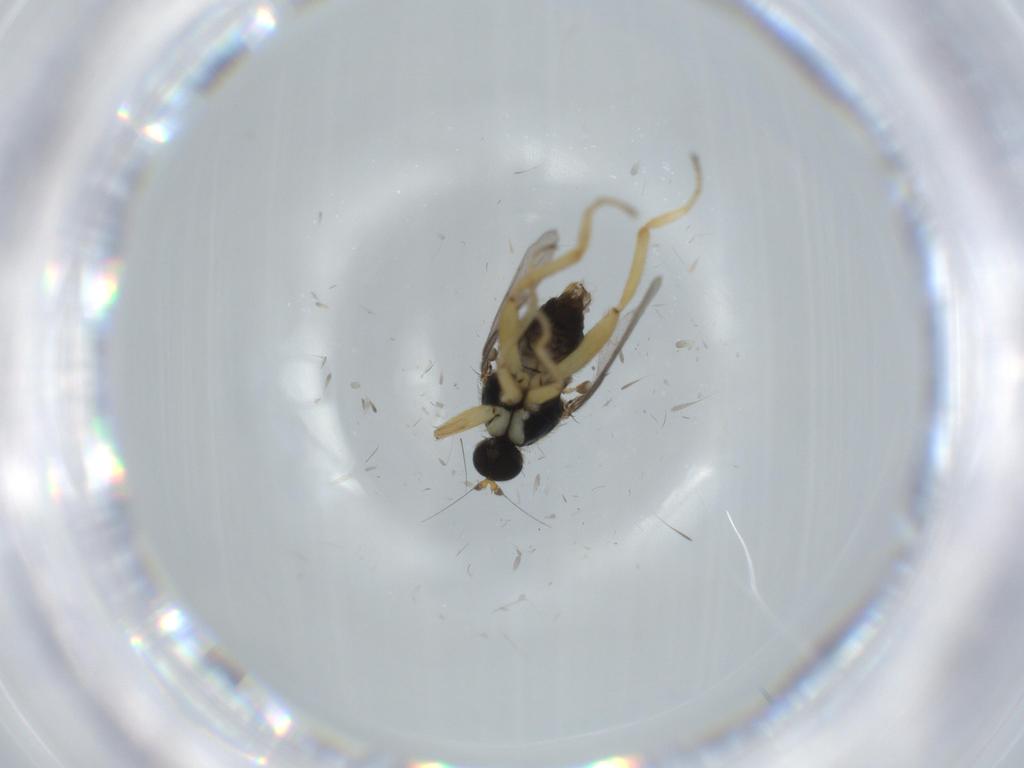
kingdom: Animalia
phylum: Arthropoda
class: Insecta
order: Diptera
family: Hybotidae
